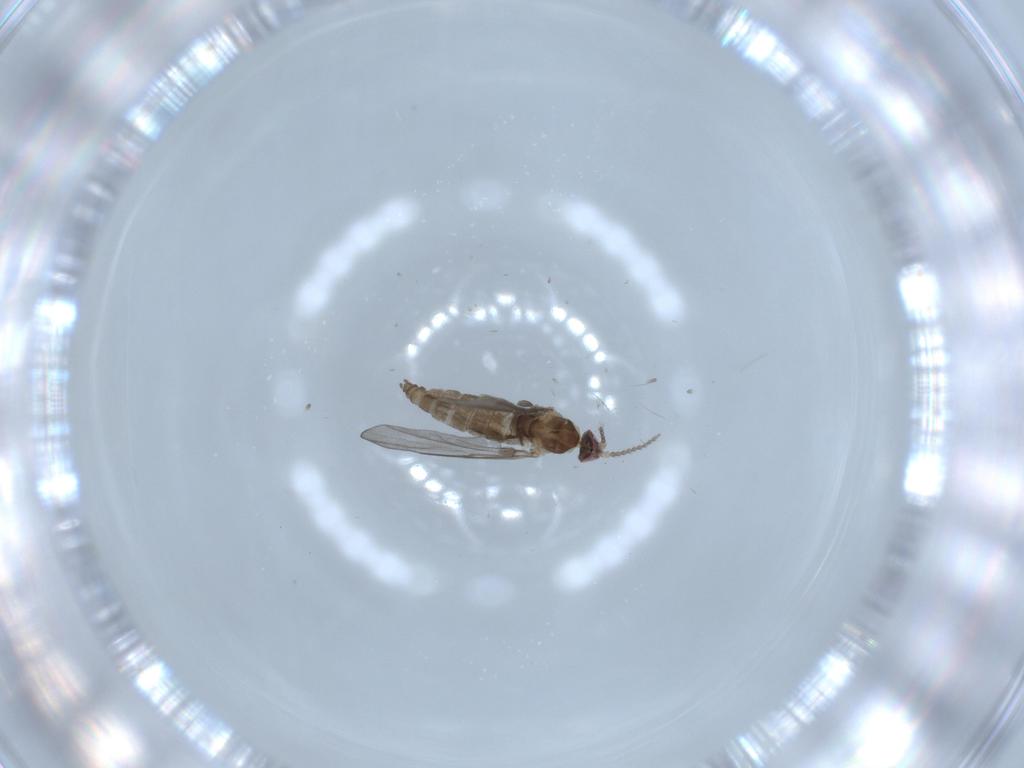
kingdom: Animalia
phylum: Arthropoda
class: Insecta
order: Diptera
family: Cecidomyiidae
